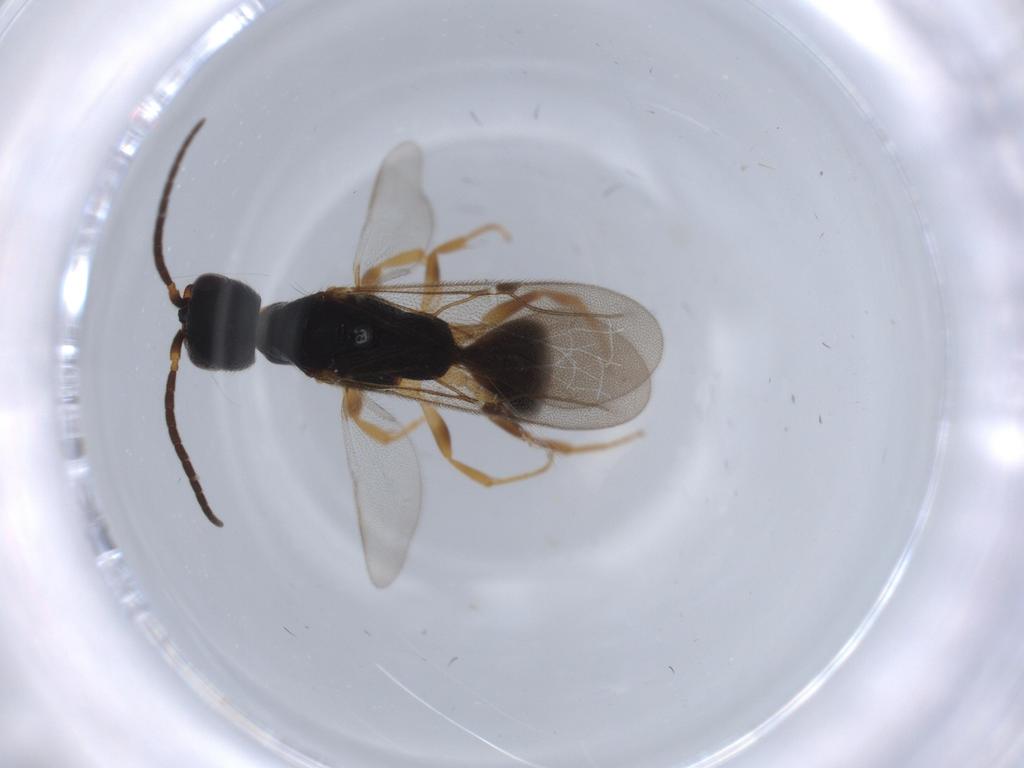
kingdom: Animalia
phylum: Arthropoda
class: Insecta
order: Hymenoptera
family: Bethylidae
